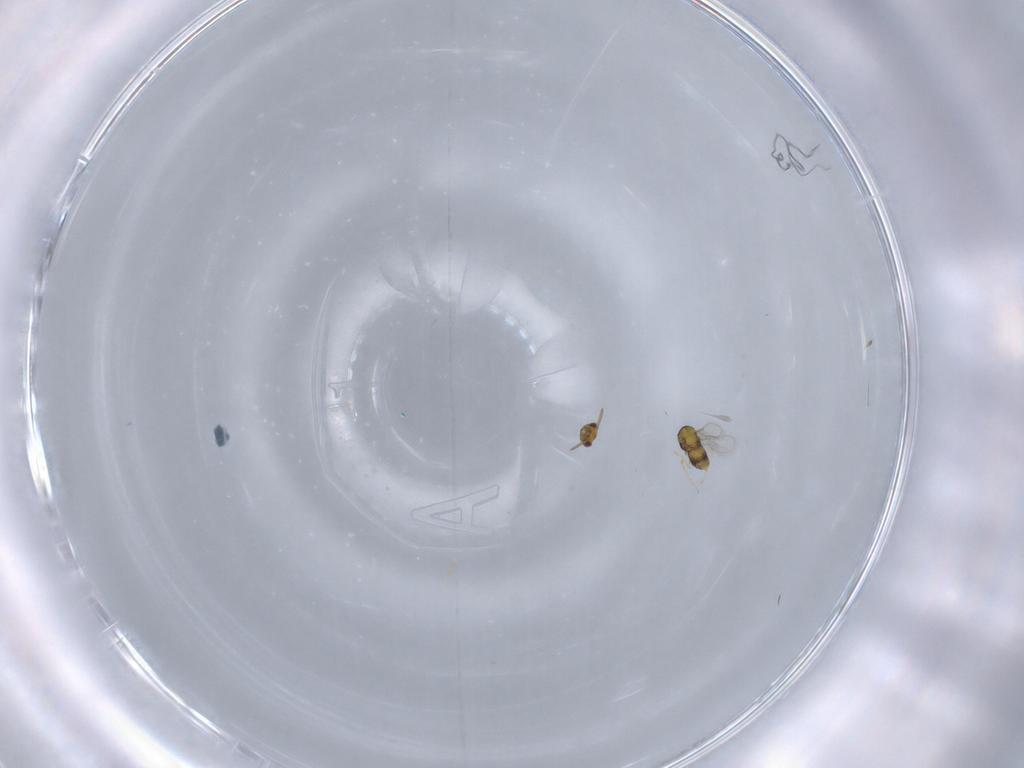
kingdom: Animalia
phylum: Arthropoda
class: Insecta
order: Hymenoptera
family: Aphelinidae
